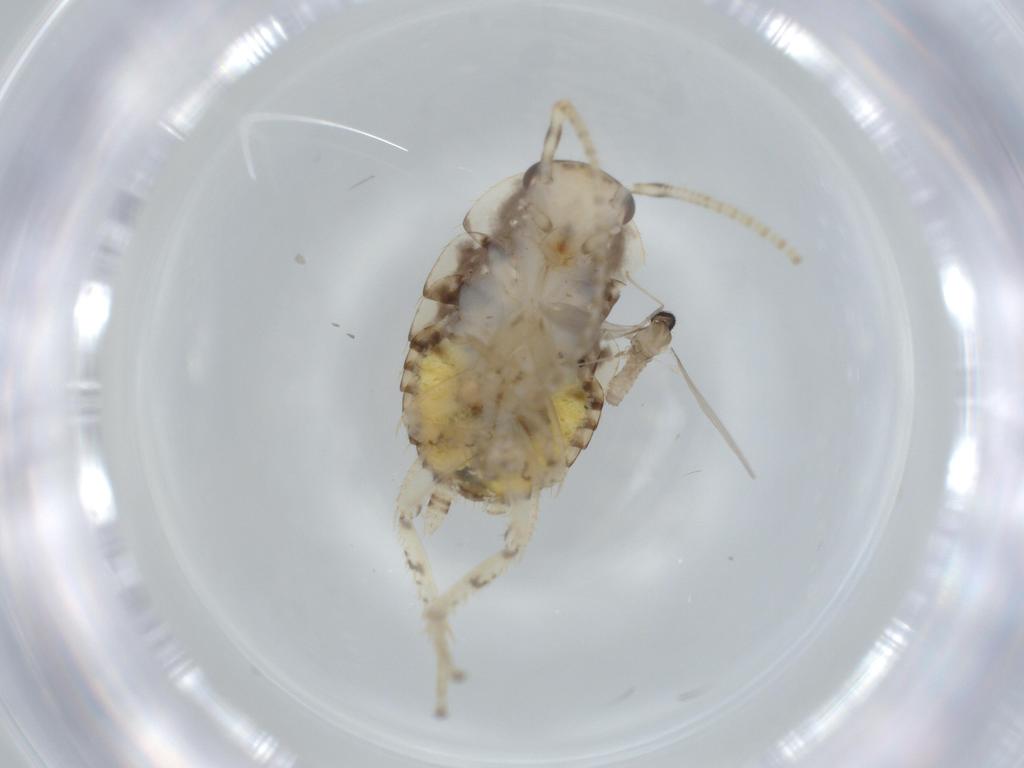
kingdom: Animalia
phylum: Arthropoda
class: Insecta
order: Blattodea
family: Ectobiidae
